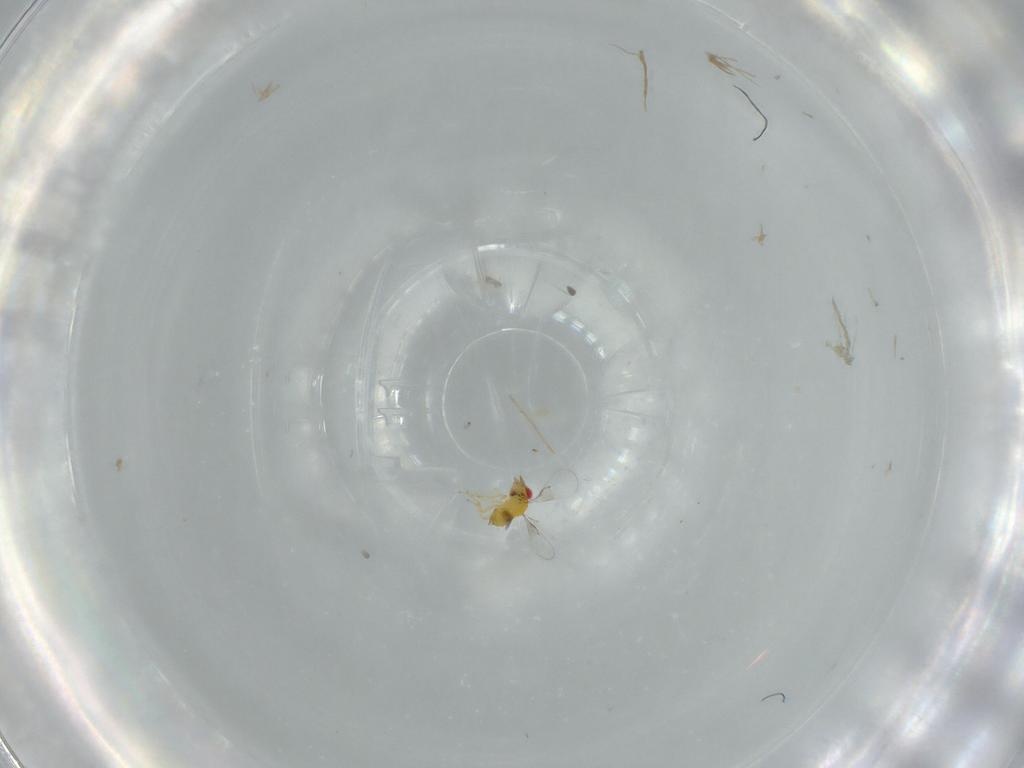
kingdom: Animalia
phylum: Arthropoda
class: Insecta
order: Hymenoptera
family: Trichogrammatidae
